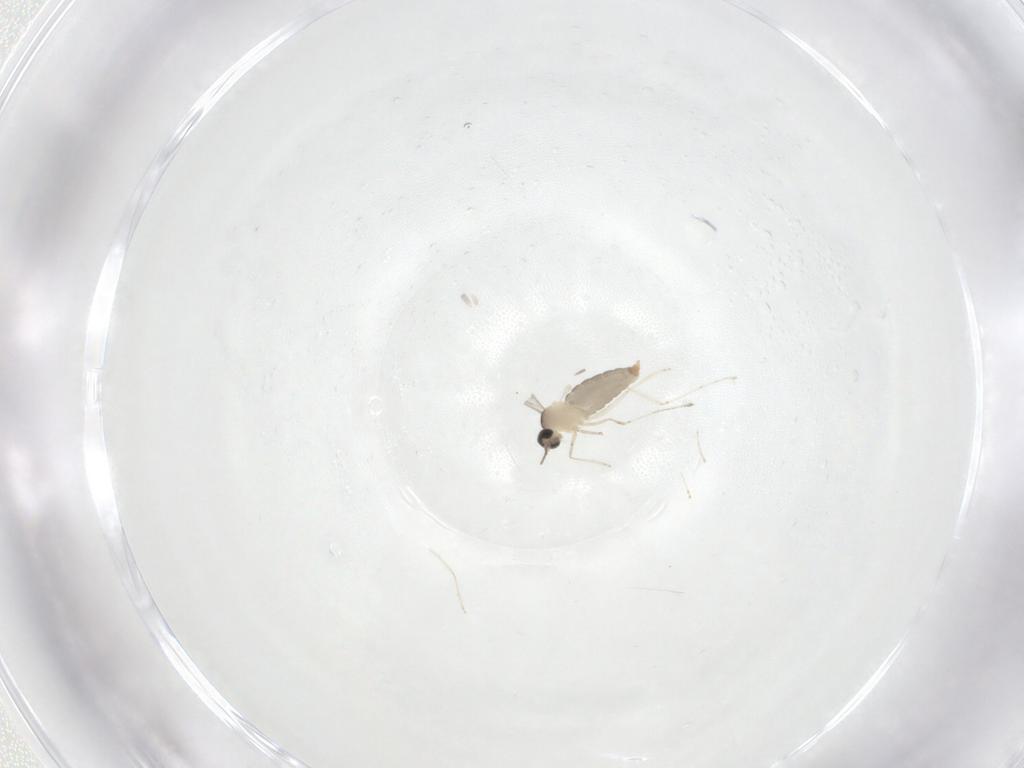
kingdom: Animalia
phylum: Arthropoda
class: Insecta
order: Diptera
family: Cecidomyiidae
